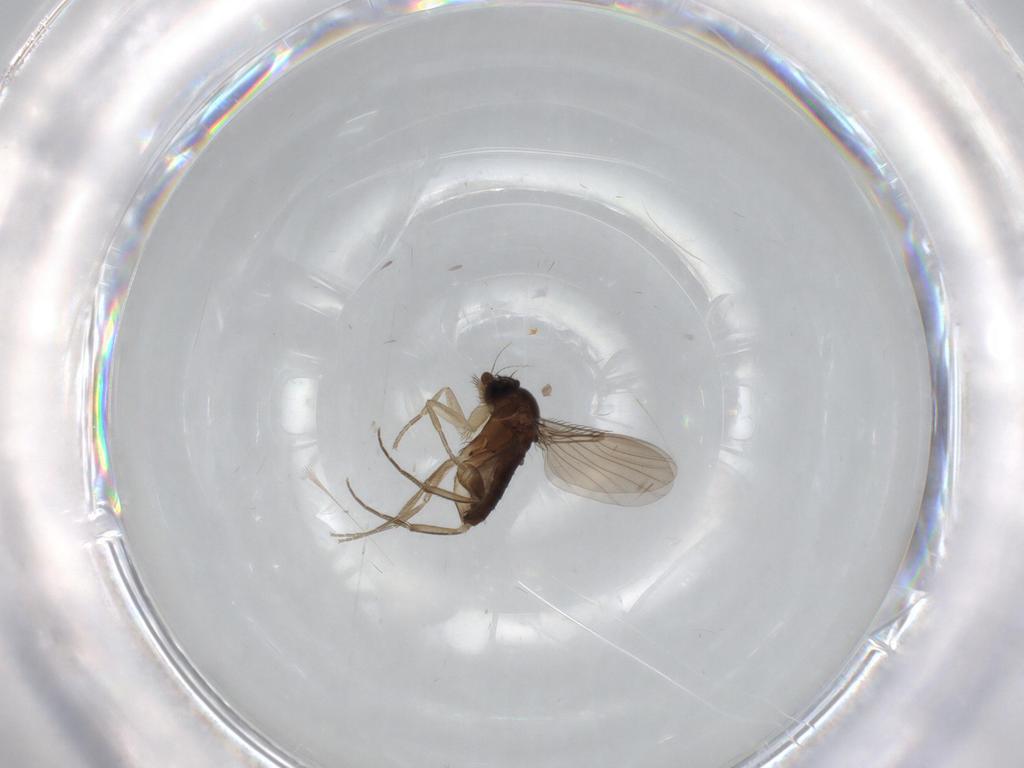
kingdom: Animalia
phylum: Arthropoda
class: Insecta
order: Diptera
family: Phoridae
